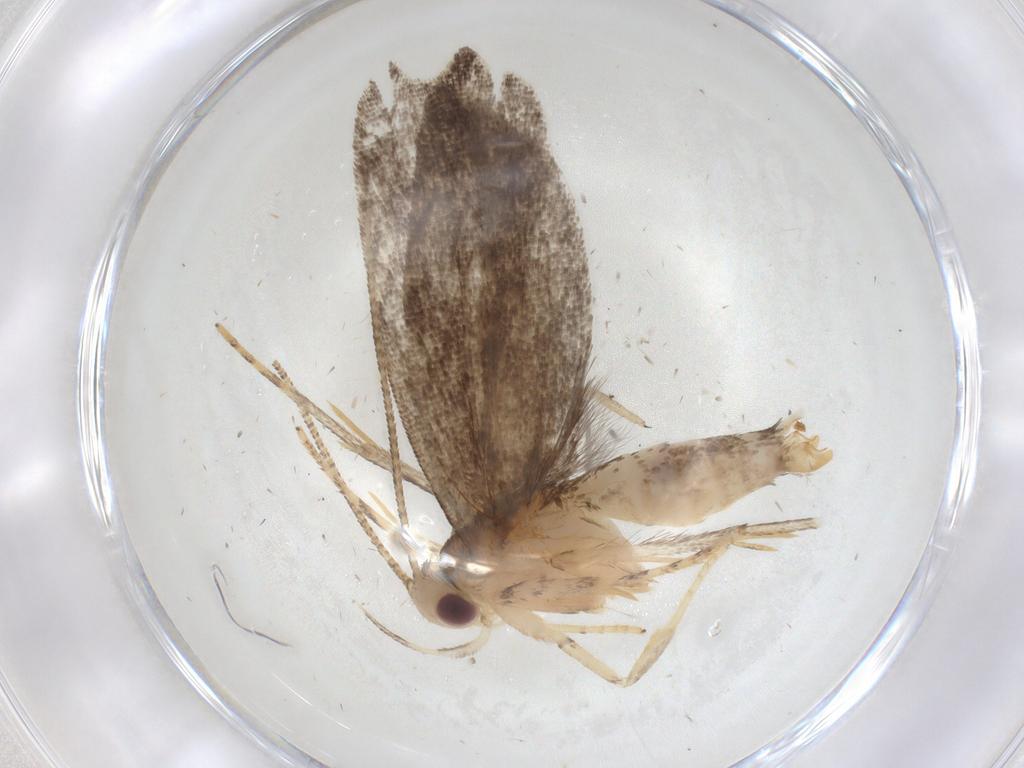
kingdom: Animalia
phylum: Arthropoda
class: Insecta
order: Lepidoptera
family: Gelechiidae
